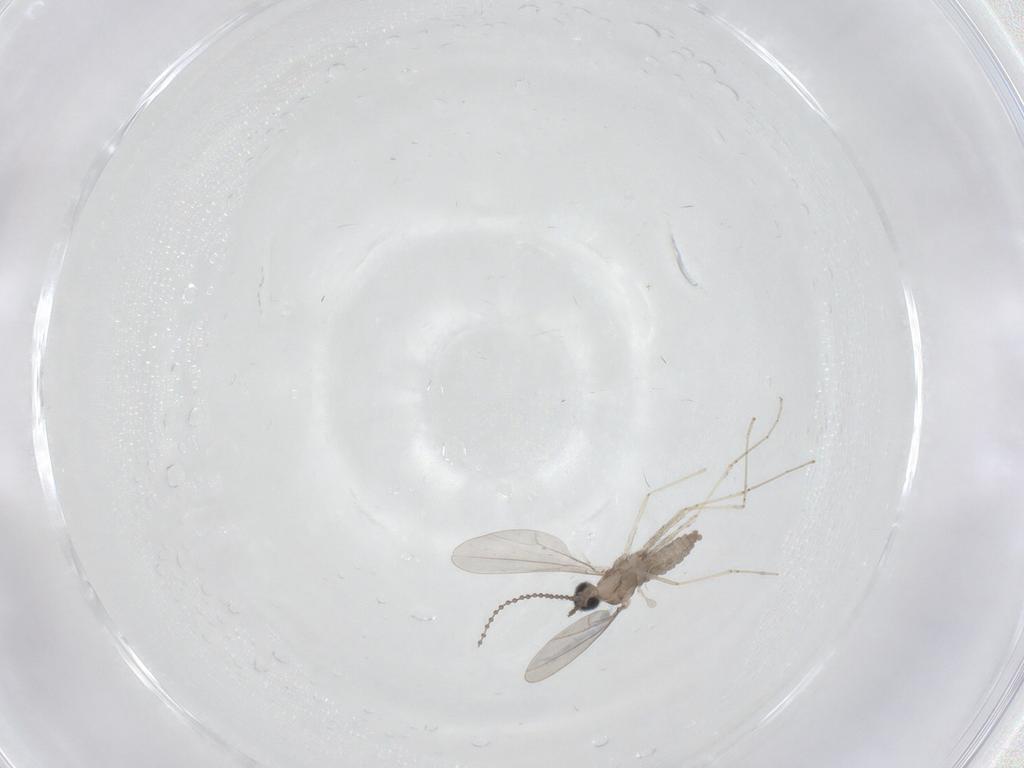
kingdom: Animalia
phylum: Arthropoda
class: Insecta
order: Diptera
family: Cecidomyiidae
